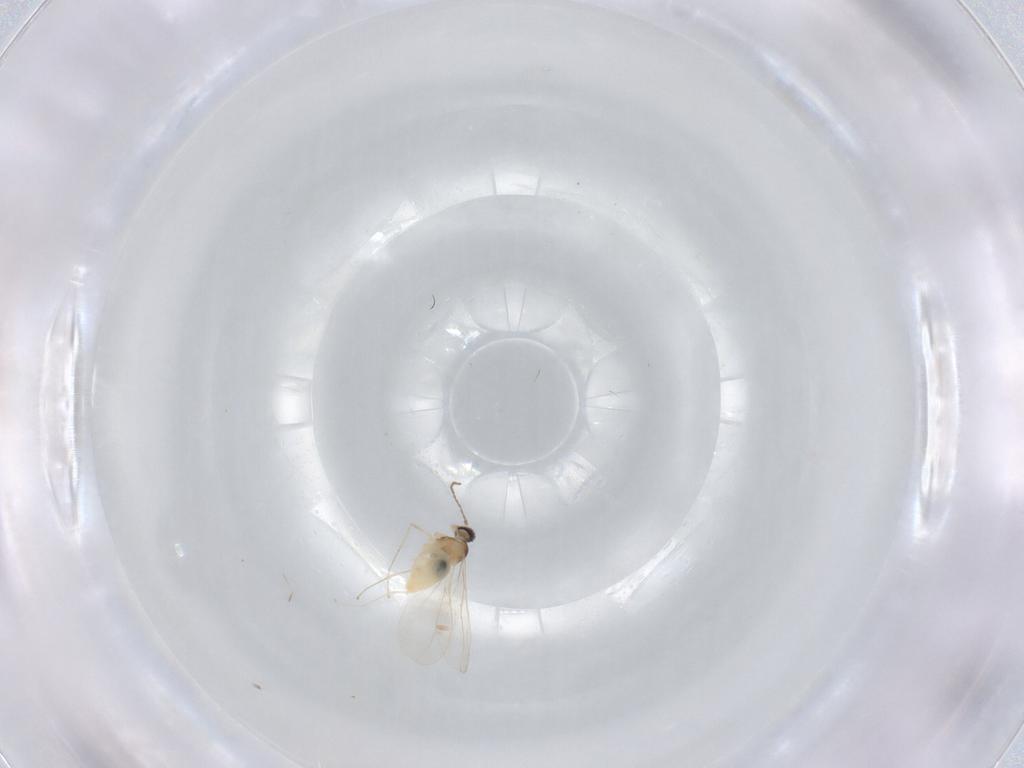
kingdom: Animalia
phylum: Arthropoda
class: Insecta
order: Diptera
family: Cecidomyiidae
